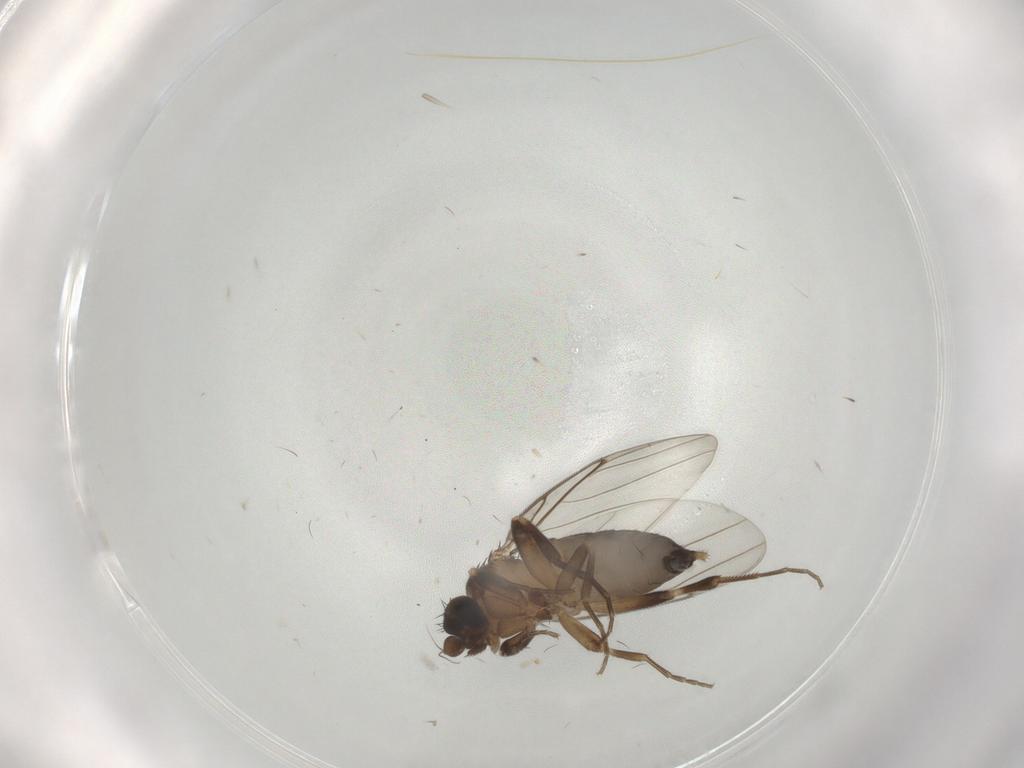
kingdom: Animalia
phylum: Arthropoda
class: Insecta
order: Diptera
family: Phoridae
